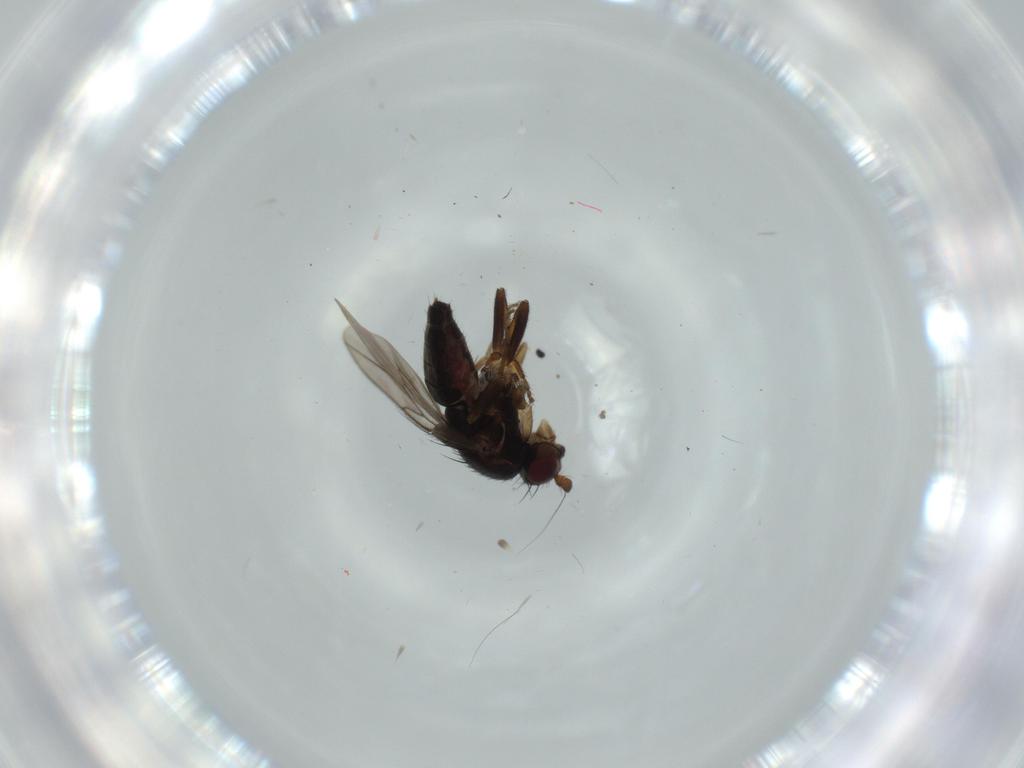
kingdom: Animalia
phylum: Arthropoda
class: Insecta
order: Diptera
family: Sphaeroceridae
